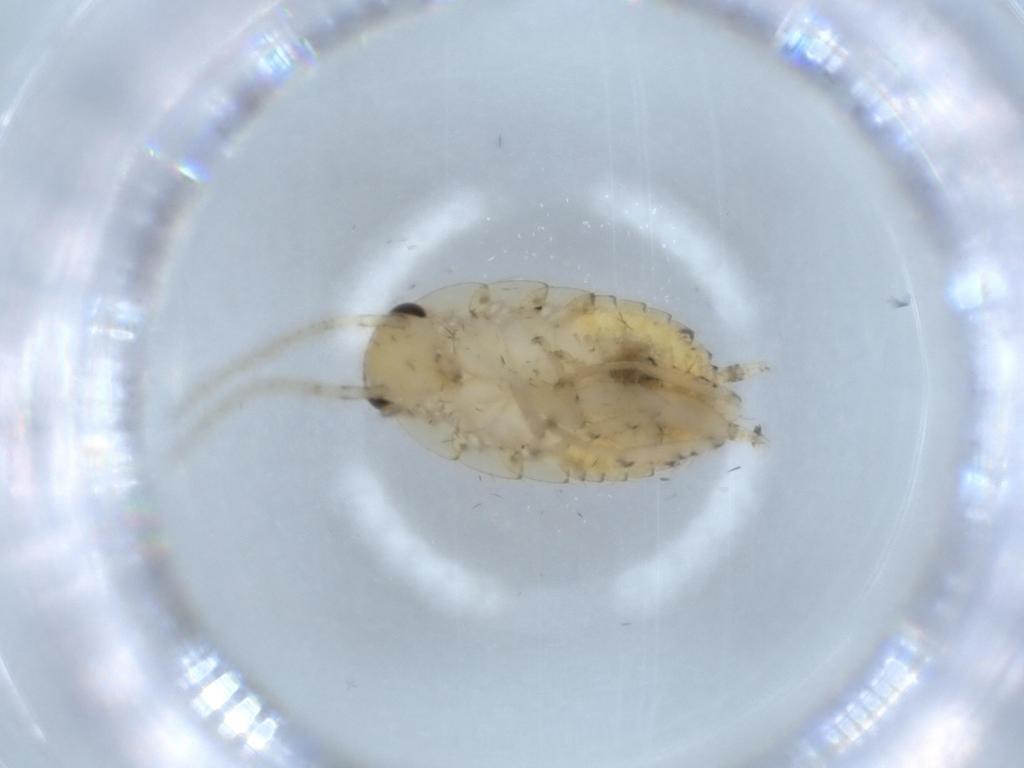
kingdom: Animalia
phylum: Arthropoda
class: Insecta
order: Blattodea
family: Ectobiidae
